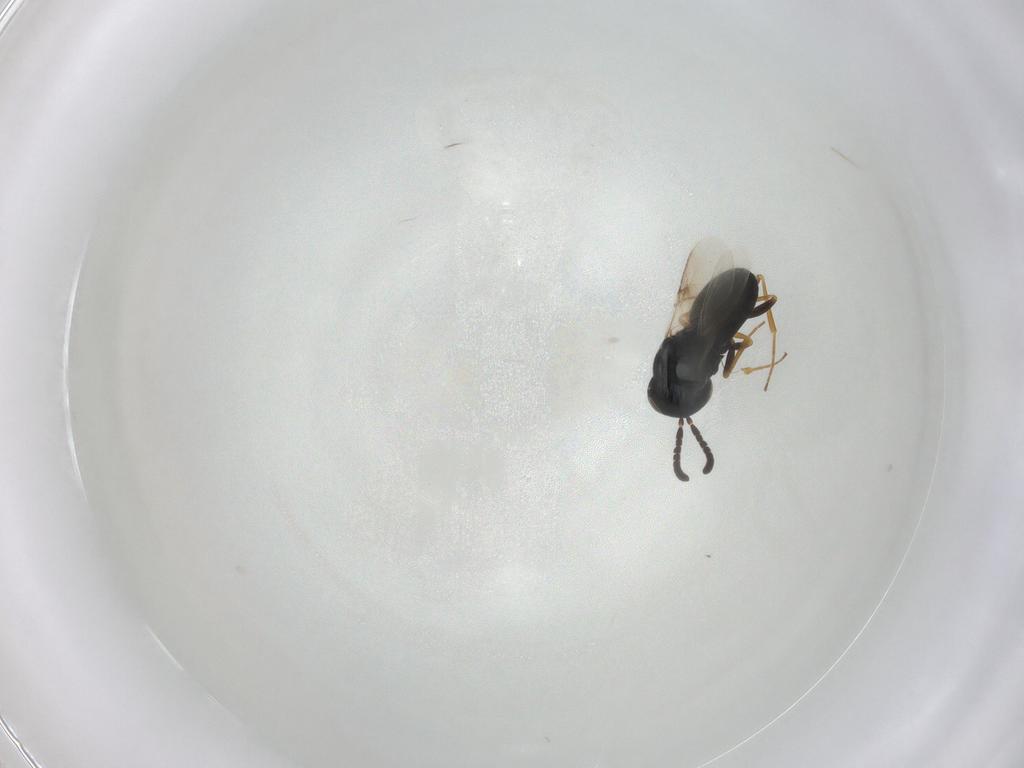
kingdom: Animalia
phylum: Arthropoda
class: Insecta
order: Hymenoptera
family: Scelionidae
